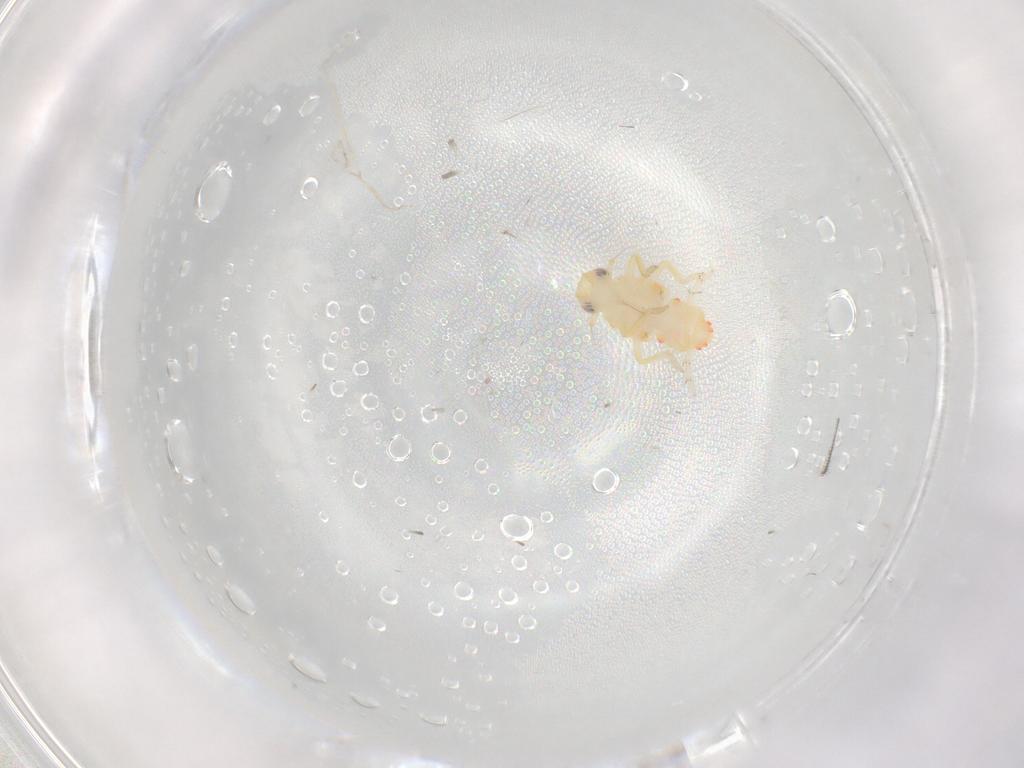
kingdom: Animalia
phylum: Arthropoda
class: Insecta
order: Hemiptera
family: Tropiduchidae
